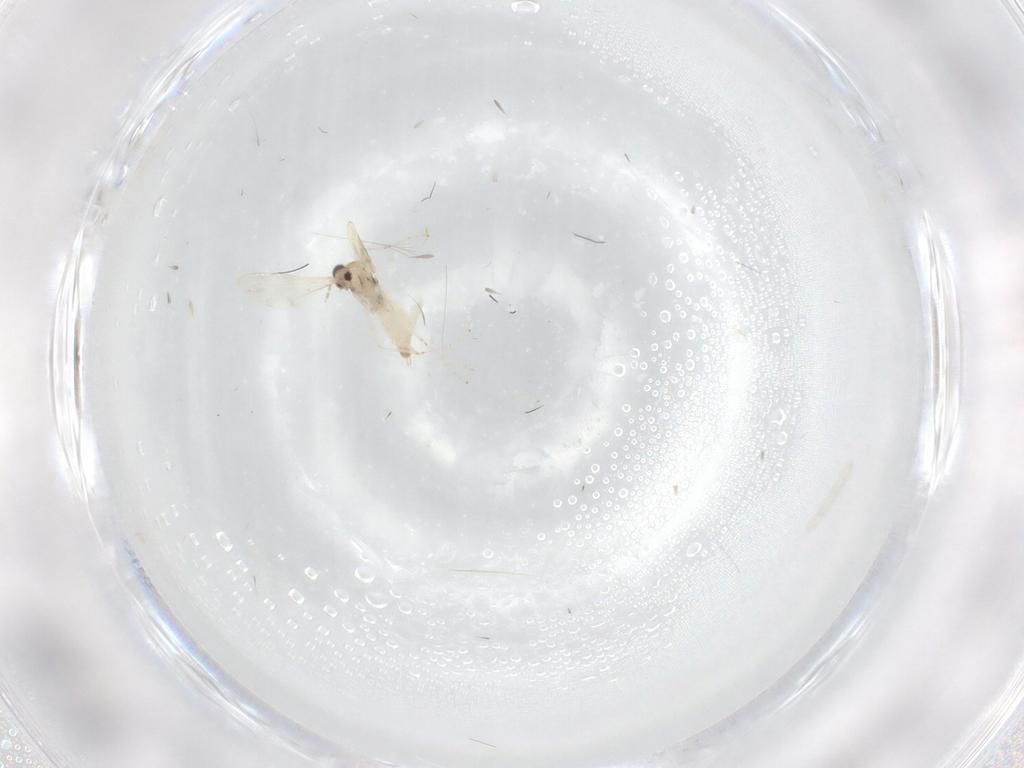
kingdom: Animalia
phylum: Arthropoda
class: Insecta
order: Diptera
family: Cecidomyiidae
